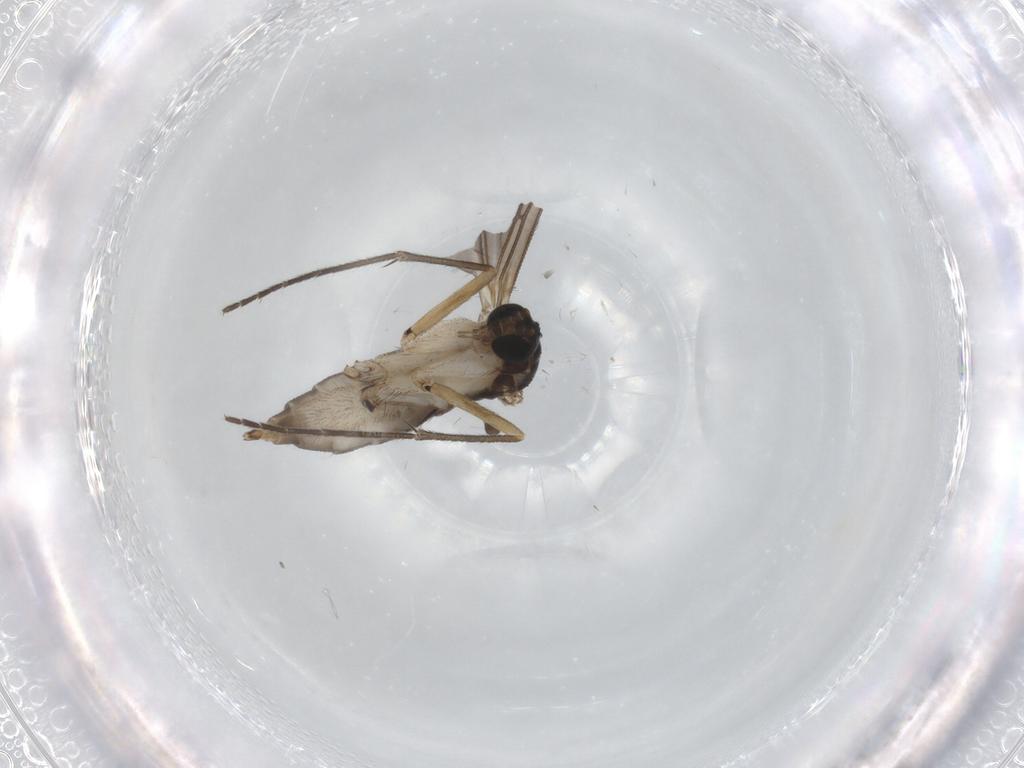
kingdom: Animalia
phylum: Arthropoda
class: Insecta
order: Diptera
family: Sciaridae
